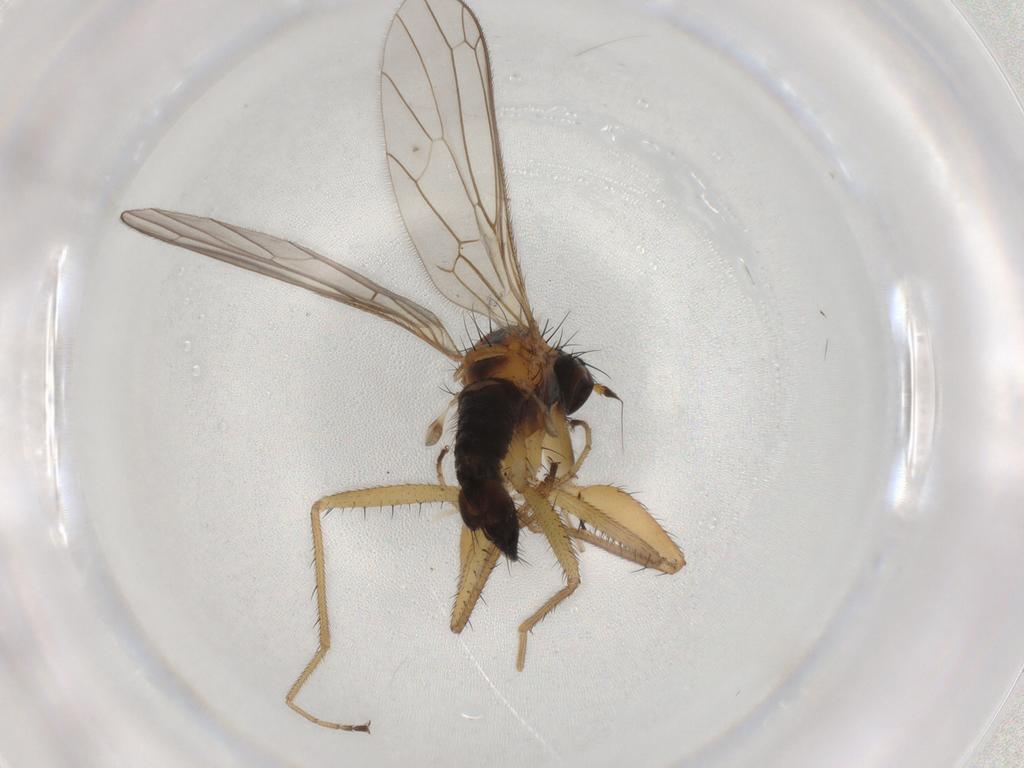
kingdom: Animalia
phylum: Arthropoda
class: Insecta
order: Diptera
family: Empididae
